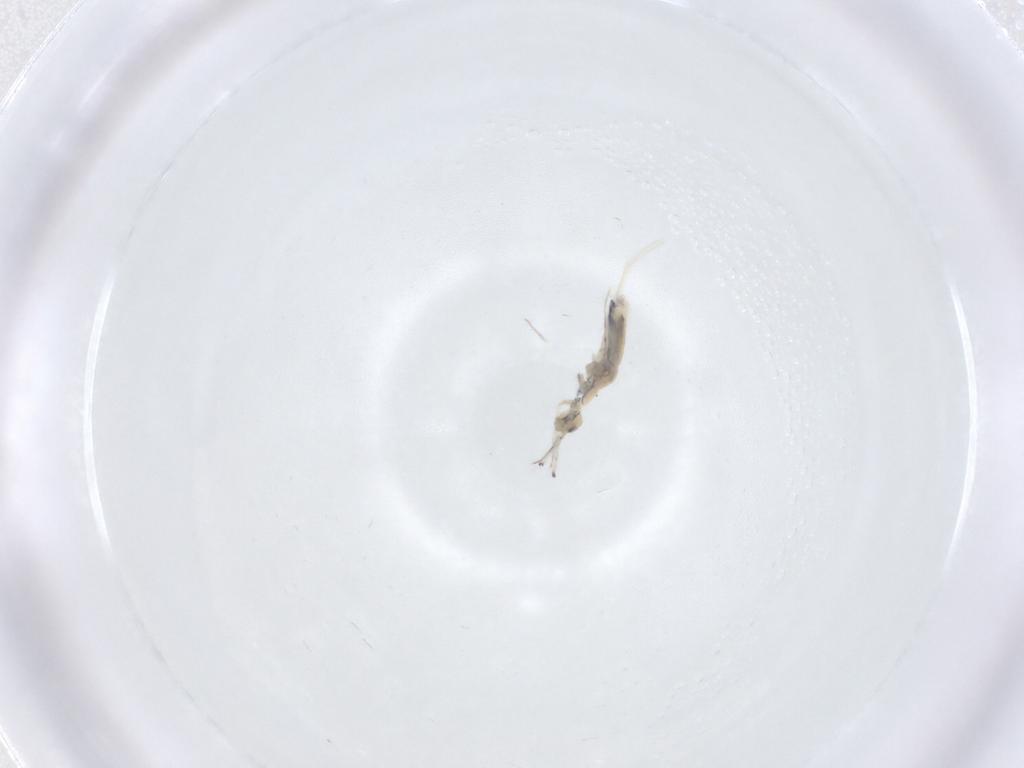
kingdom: Animalia
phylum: Arthropoda
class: Collembola
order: Entomobryomorpha
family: Paronellidae
